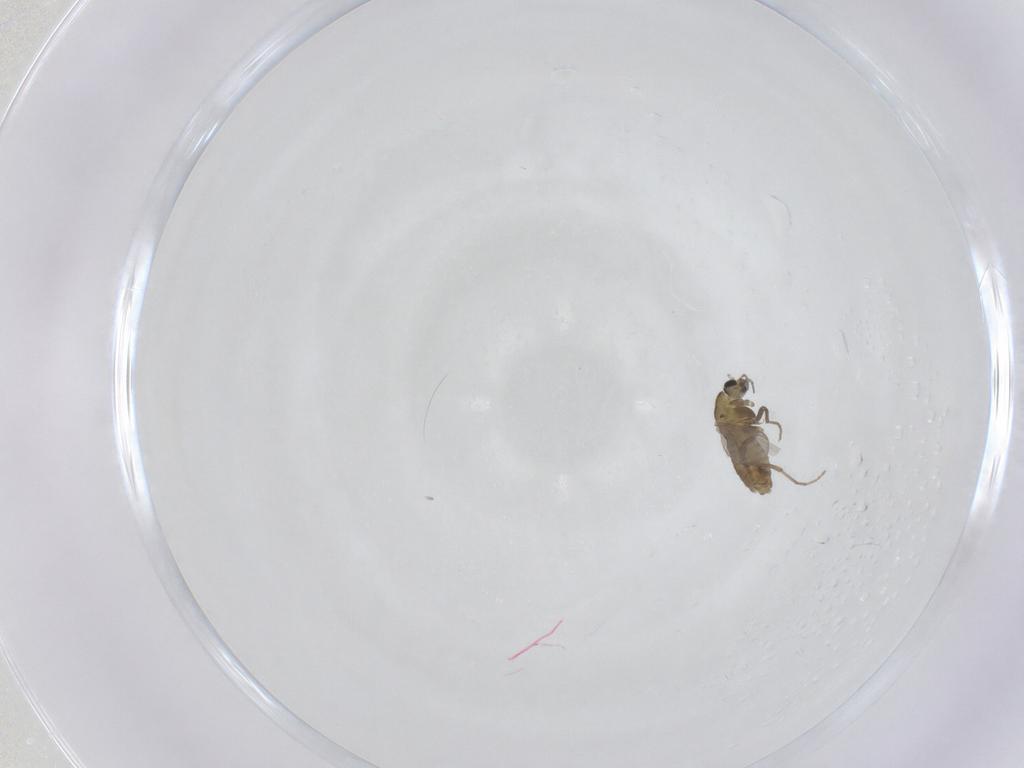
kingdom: Animalia
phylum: Arthropoda
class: Insecta
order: Diptera
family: Chironomidae
